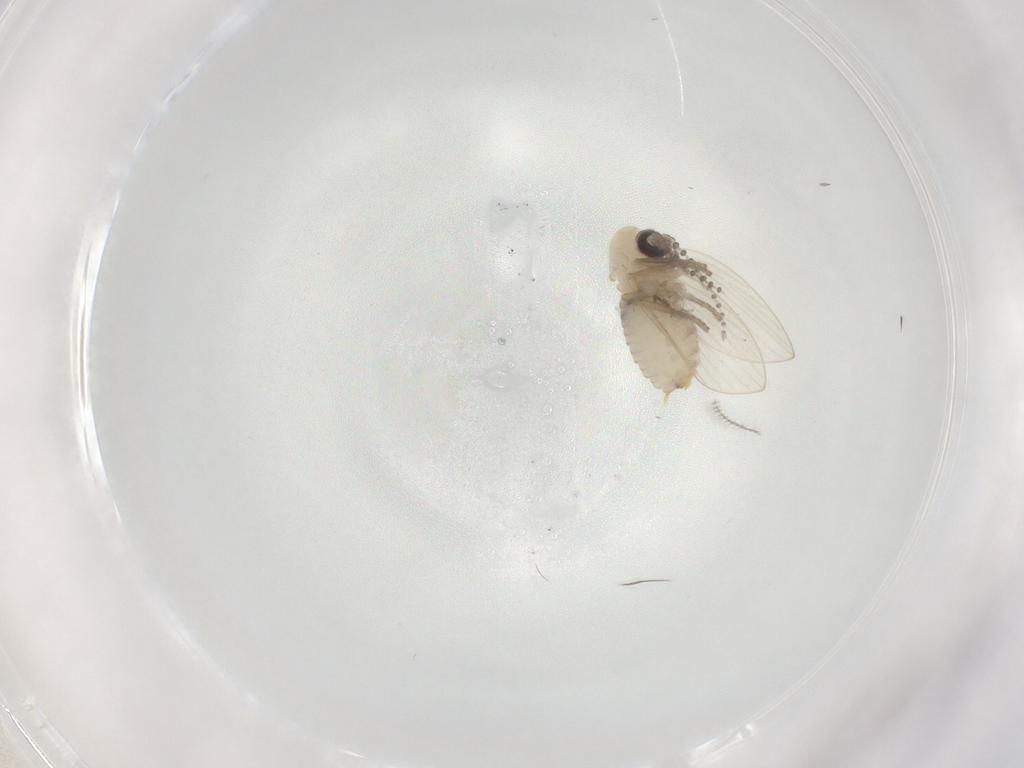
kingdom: Animalia
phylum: Arthropoda
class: Insecta
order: Diptera
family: Psychodidae
